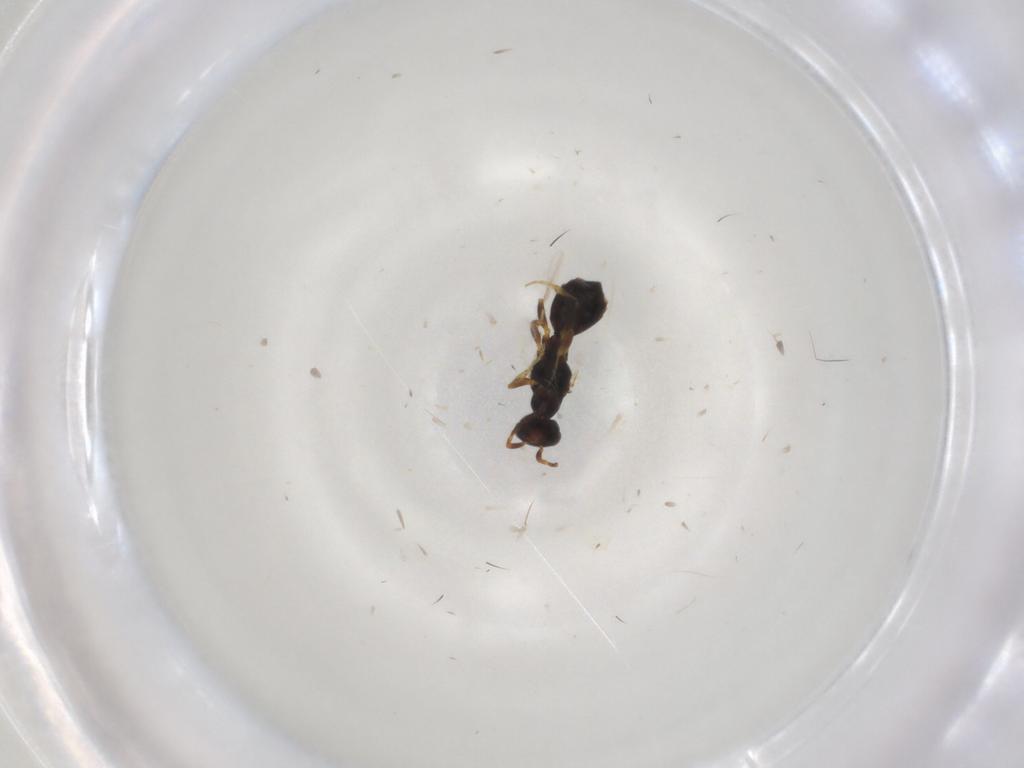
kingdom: Animalia
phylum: Arthropoda
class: Insecta
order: Hymenoptera
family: Bethylidae
